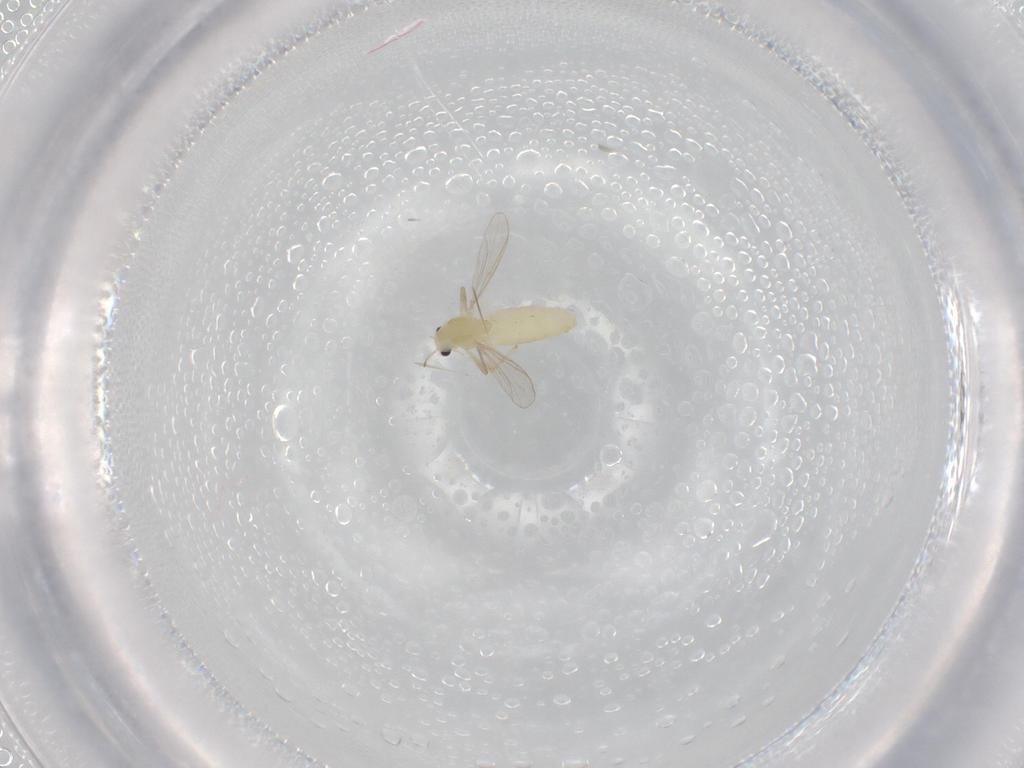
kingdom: Animalia
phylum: Arthropoda
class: Insecta
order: Diptera
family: Chironomidae
